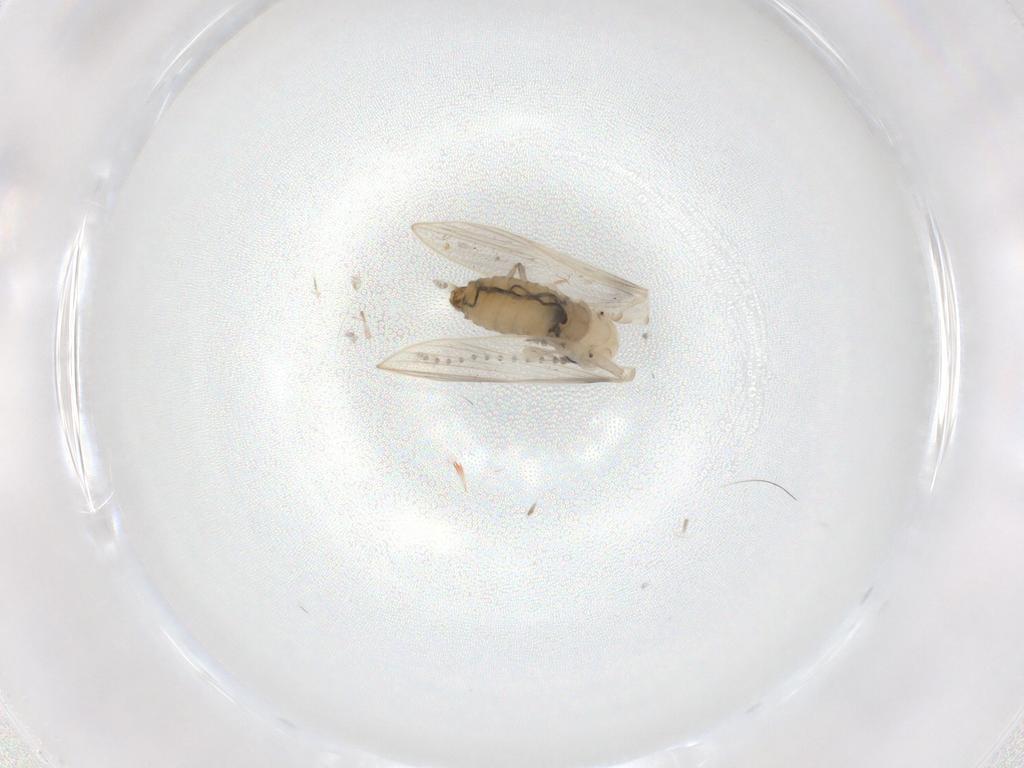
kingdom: Animalia
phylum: Arthropoda
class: Insecta
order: Diptera
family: Psychodidae
